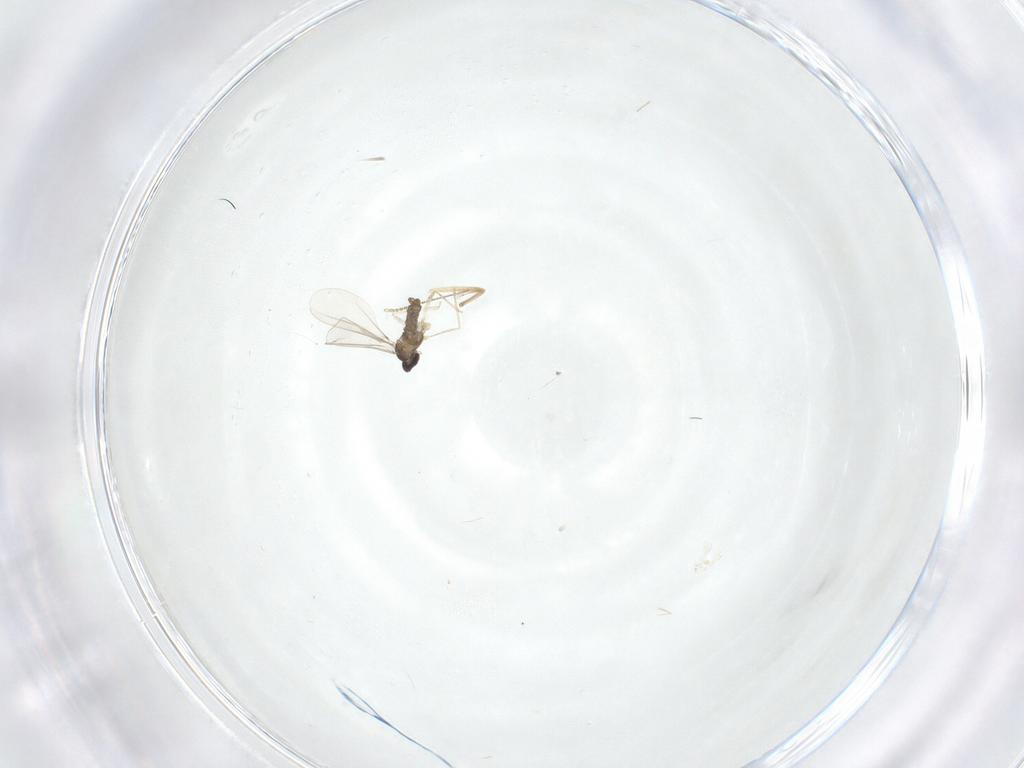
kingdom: Animalia
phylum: Arthropoda
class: Insecta
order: Diptera
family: Cecidomyiidae
